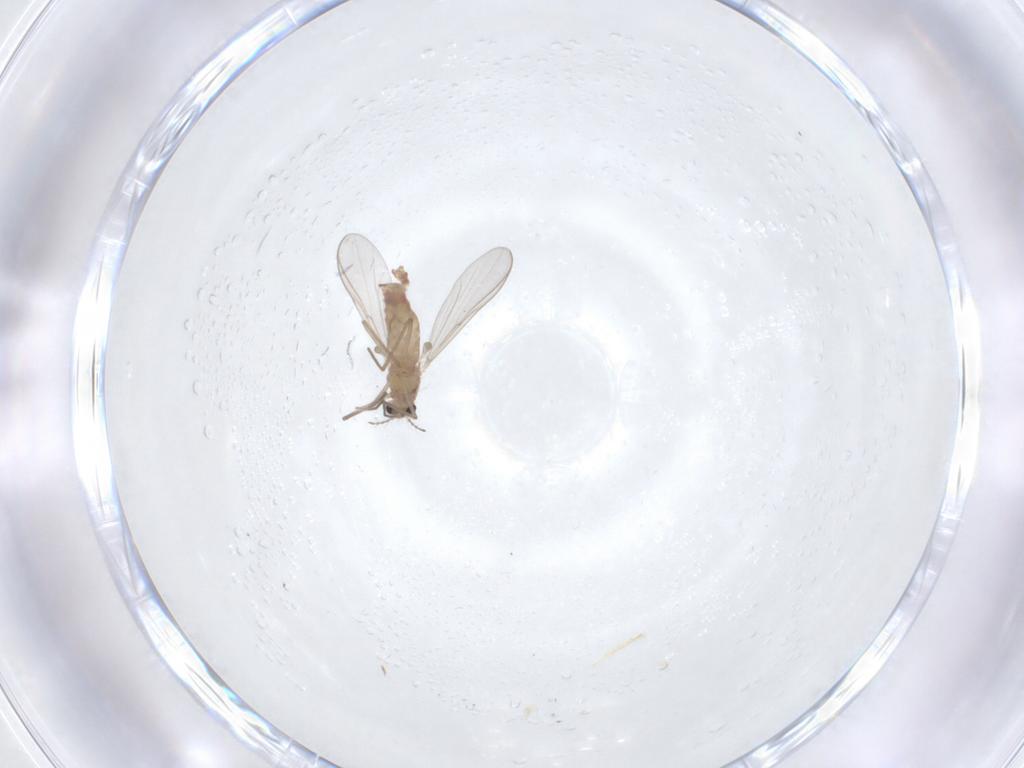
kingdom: Animalia
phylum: Arthropoda
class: Insecta
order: Diptera
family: Chironomidae
